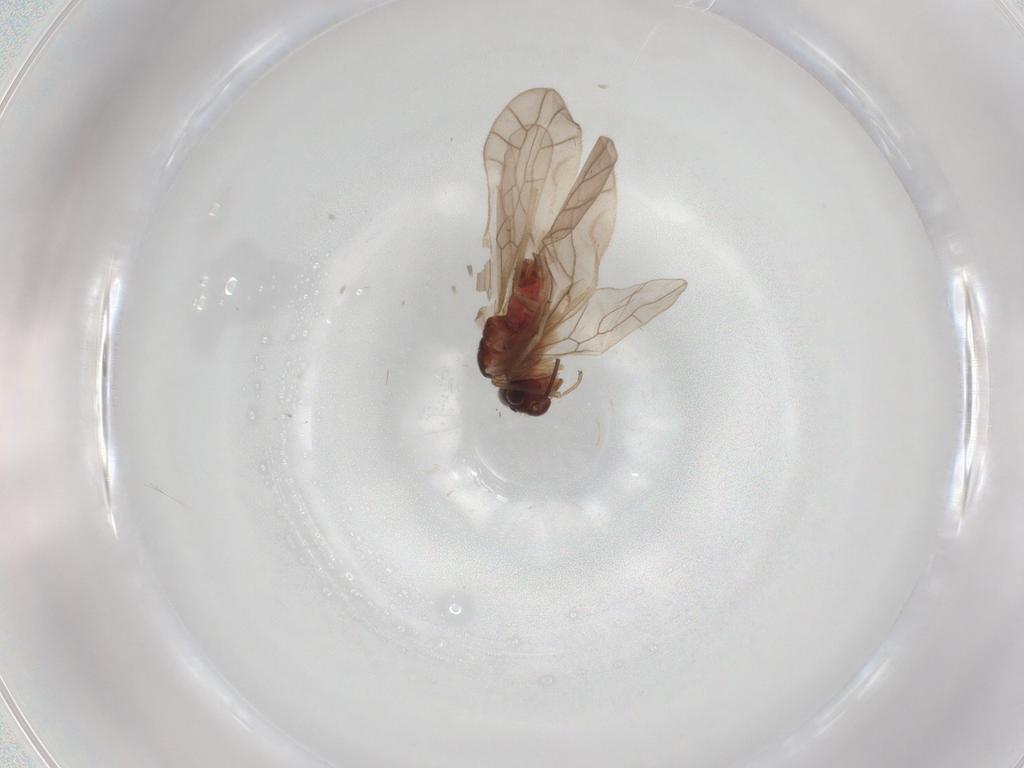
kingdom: Animalia
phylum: Arthropoda
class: Insecta
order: Psocodea
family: Caeciliusidae
